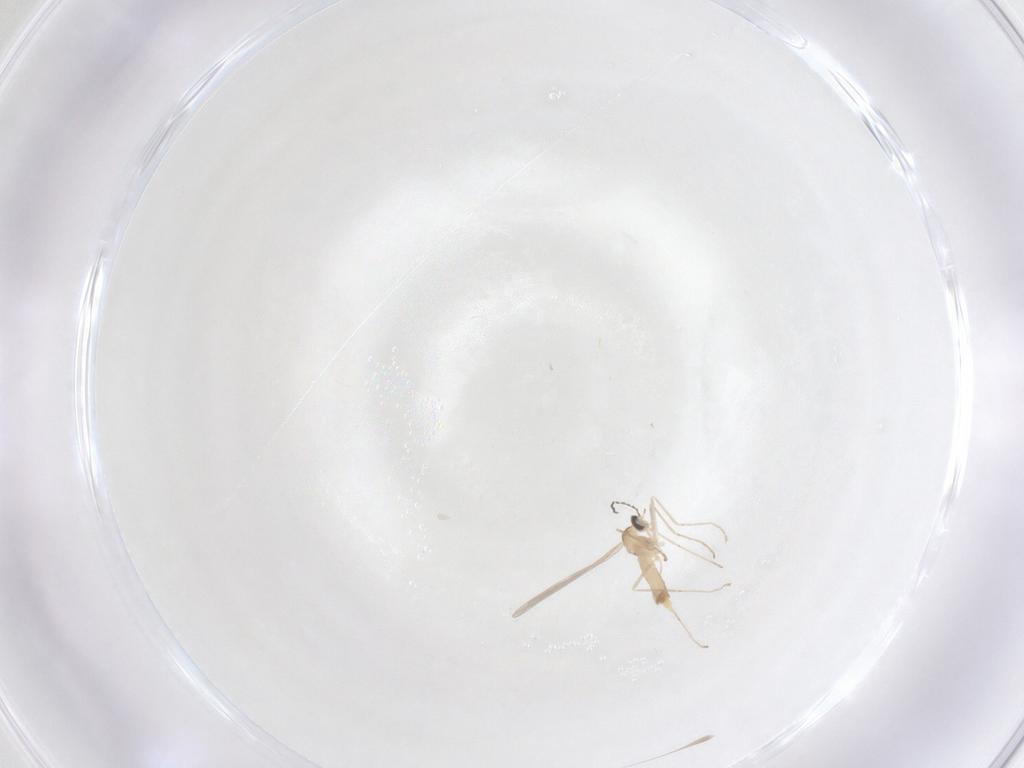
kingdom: Animalia
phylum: Arthropoda
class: Insecta
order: Diptera
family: Cecidomyiidae
